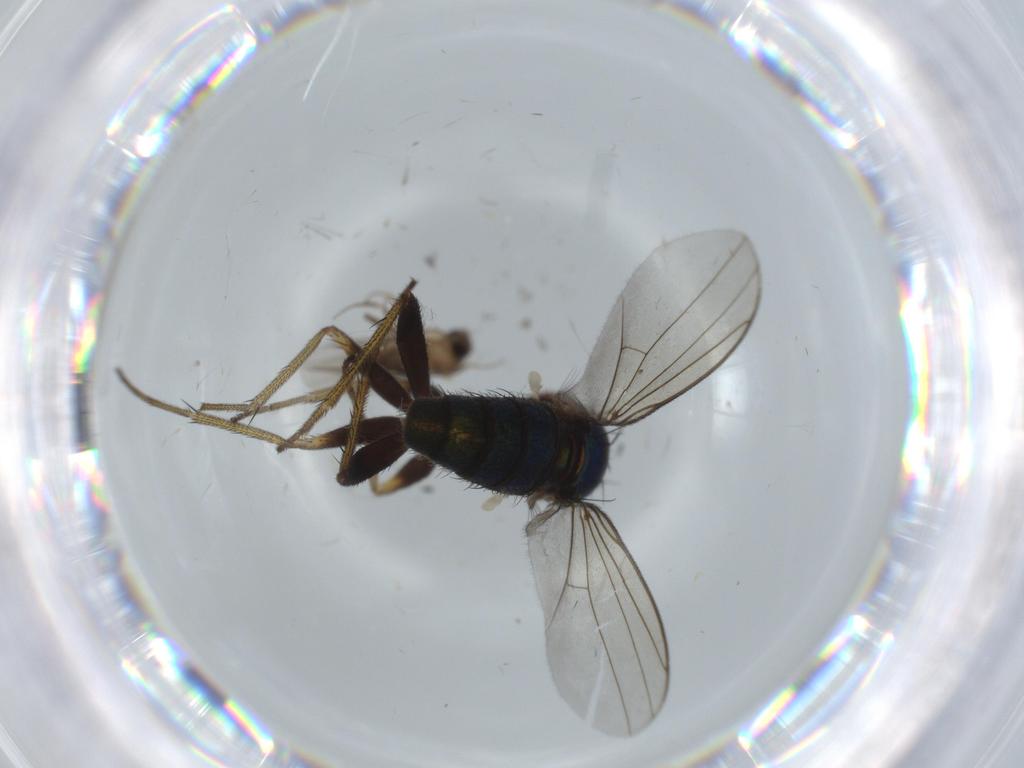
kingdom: Animalia
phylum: Arthropoda
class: Insecta
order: Diptera
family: Phoridae
